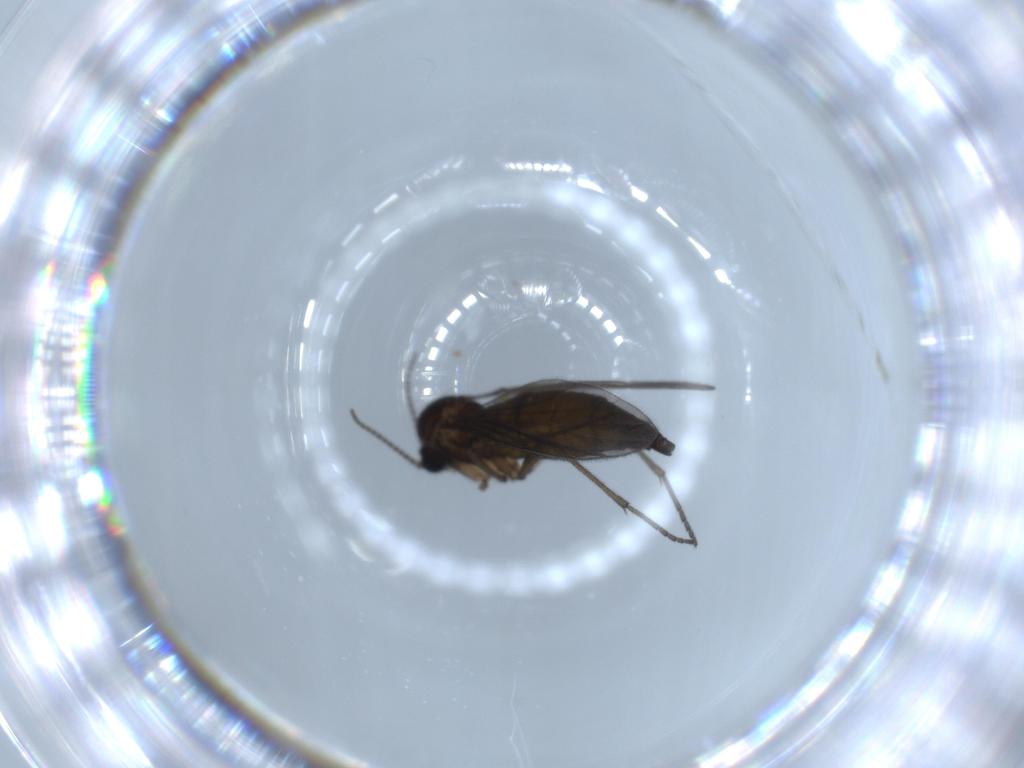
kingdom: Animalia
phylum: Arthropoda
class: Insecta
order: Diptera
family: Sciaridae
